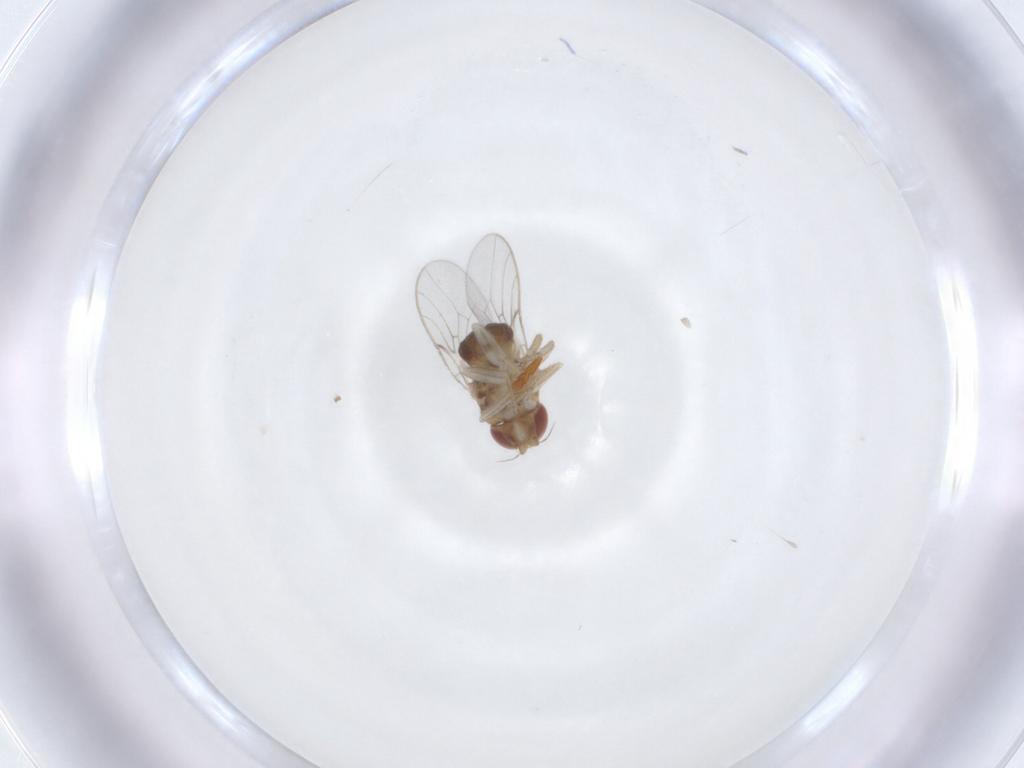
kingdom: Animalia
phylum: Arthropoda
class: Insecta
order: Diptera
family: Chloropidae
